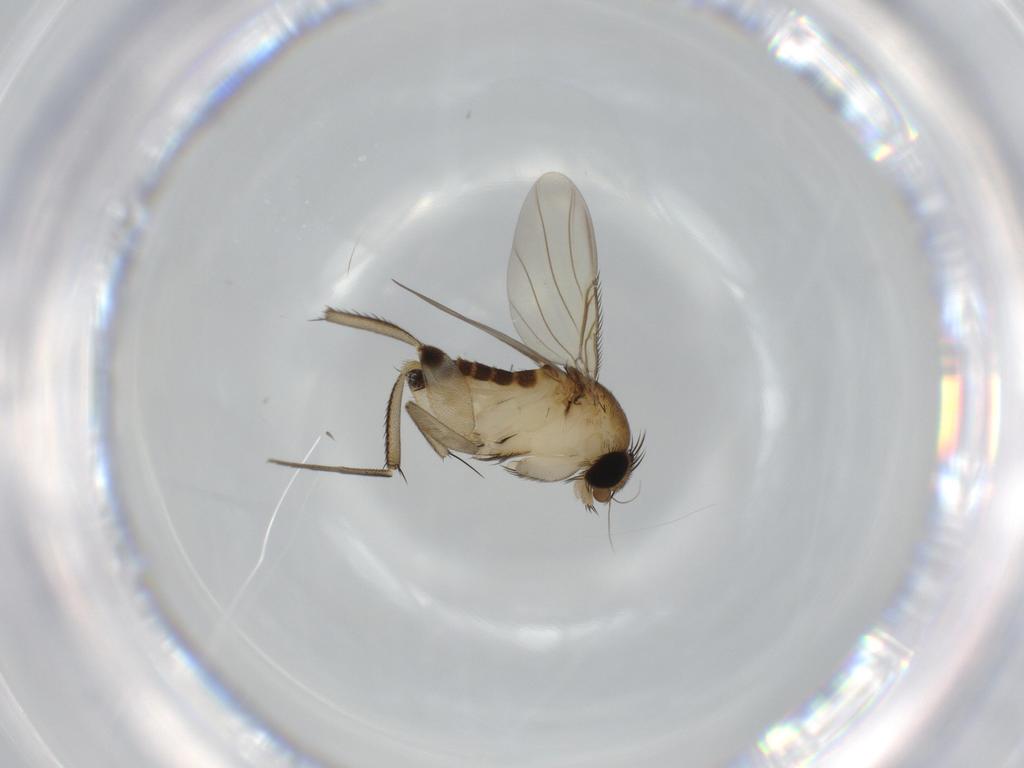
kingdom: Animalia
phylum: Arthropoda
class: Insecta
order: Diptera
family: Phoridae
